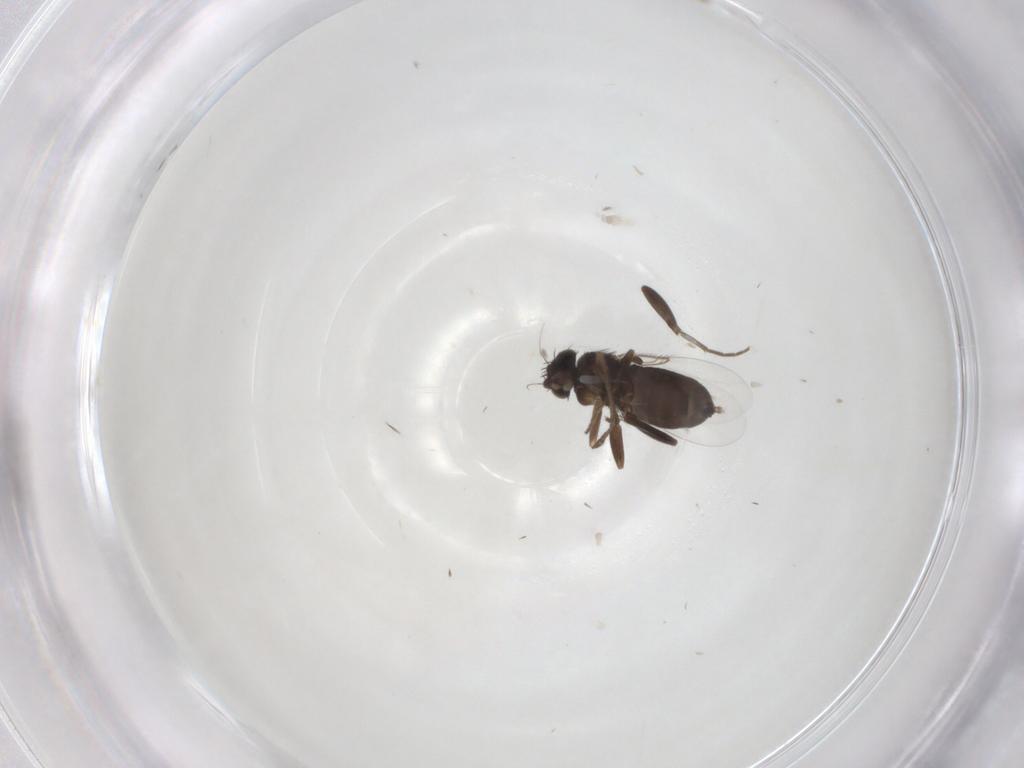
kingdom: Animalia
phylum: Arthropoda
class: Insecta
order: Diptera
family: Phoridae
